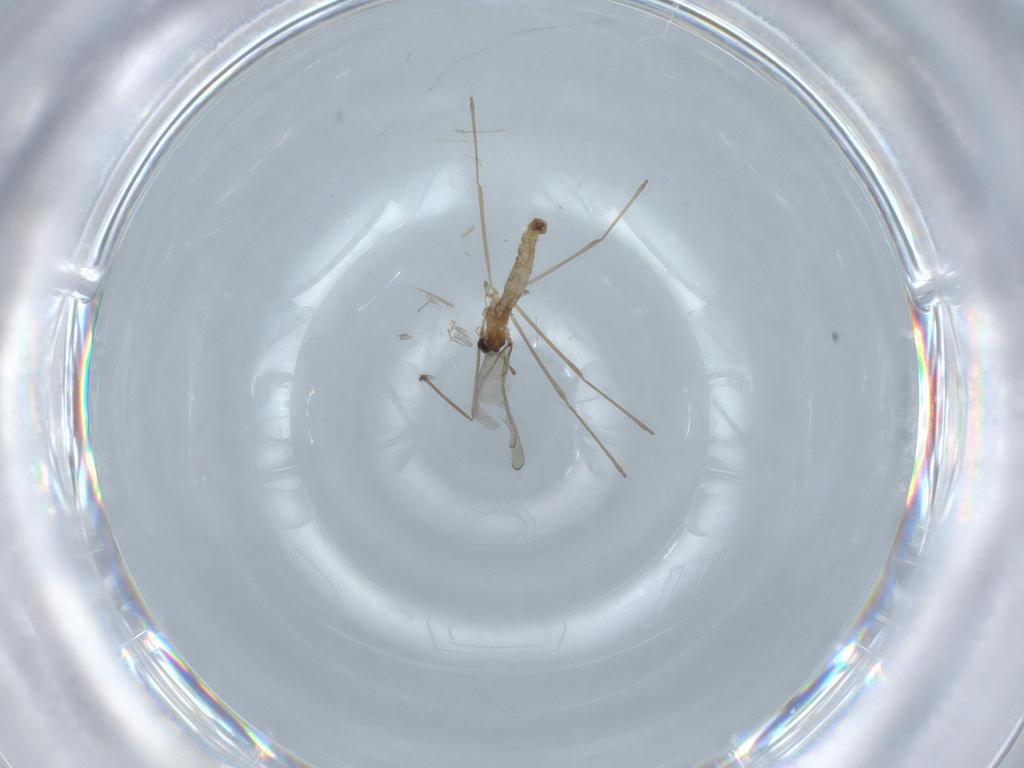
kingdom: Animalia
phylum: Arthropoda
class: Insecta
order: Diptera
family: Sciaridae
